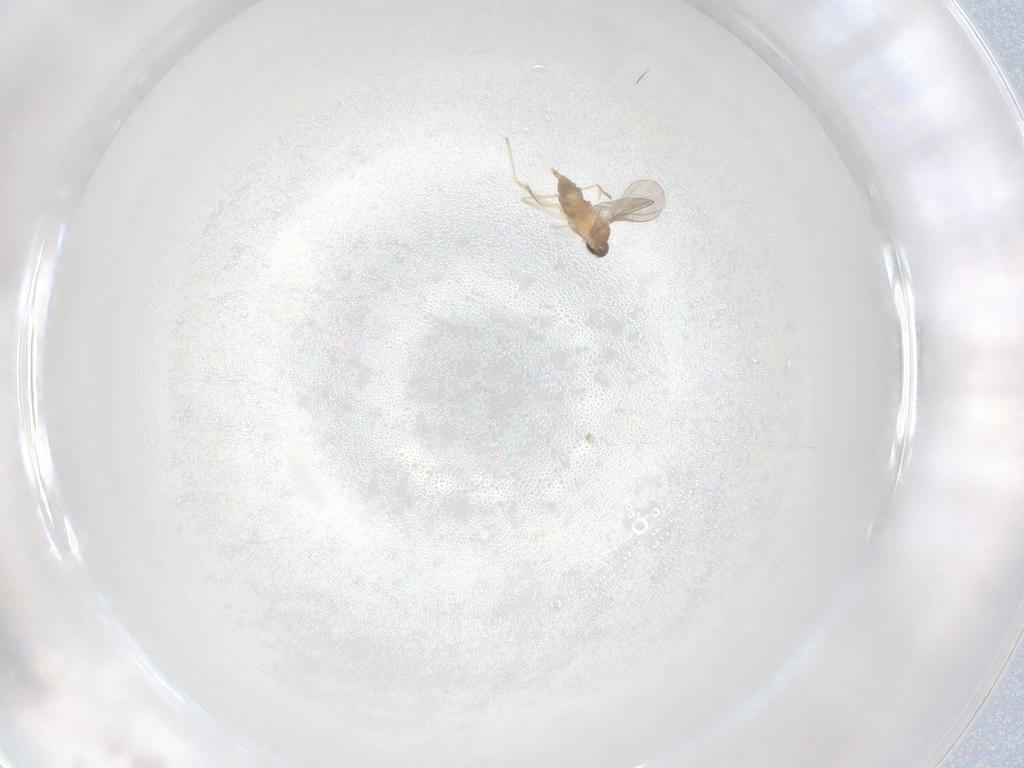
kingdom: Animalia
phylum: Arthropoda
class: Insecta
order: Diptera
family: Cecidomyiidae
